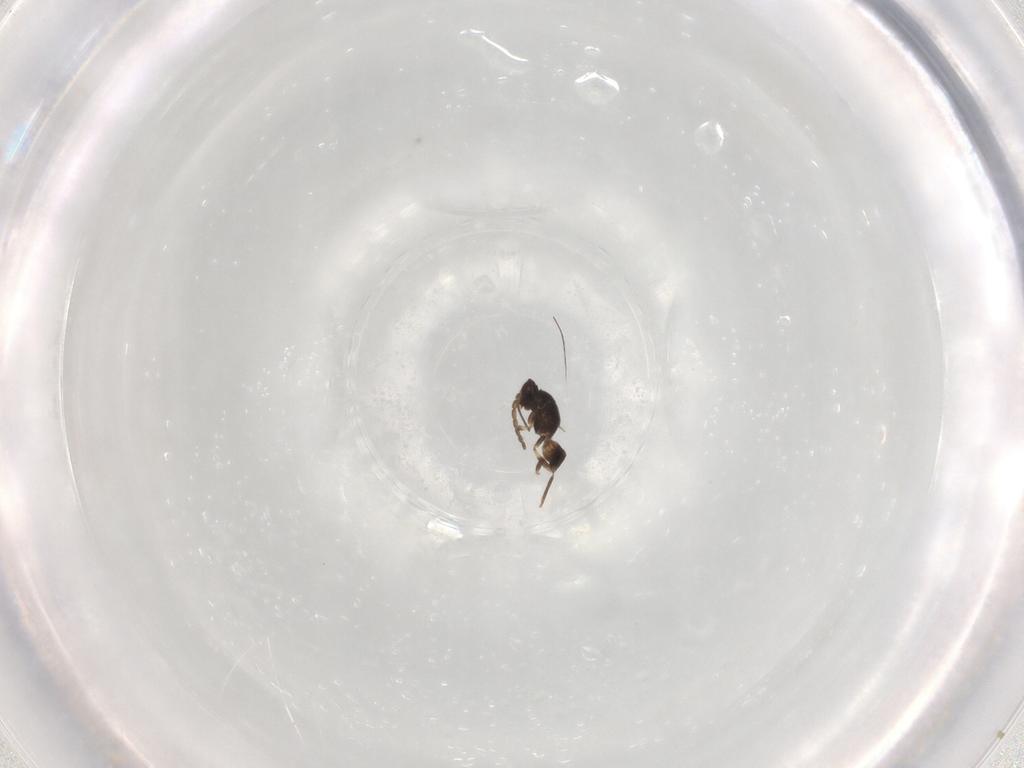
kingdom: Animalia
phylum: Arthropoda
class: Insecta
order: Hymenoptera
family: Mymaridae
